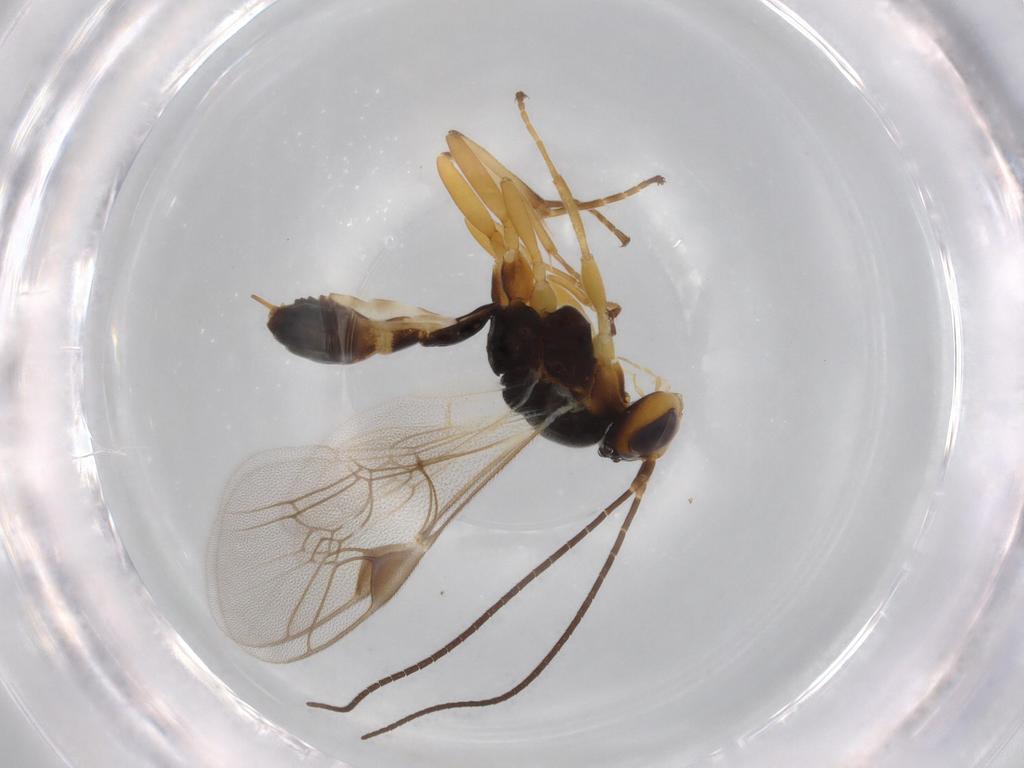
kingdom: Animalia
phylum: Arthropoda
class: Insecta
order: Hymenoptera
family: Ichneumonidae
